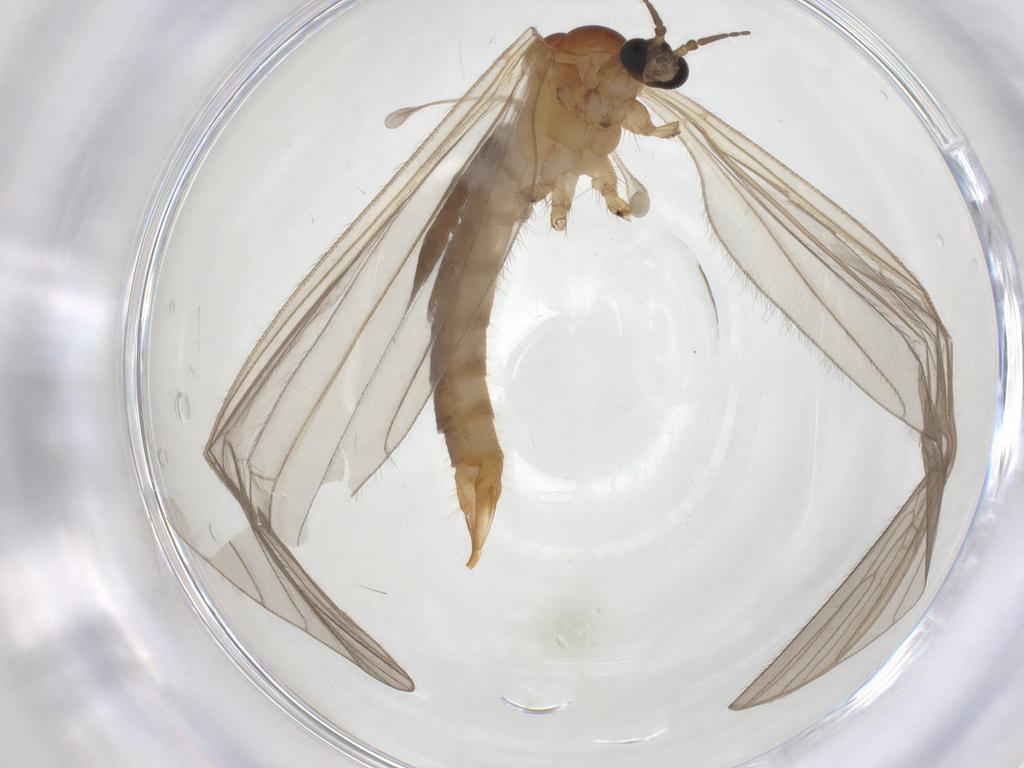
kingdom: Animalia
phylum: Arthropoda
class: Insecta
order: Diptera
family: Limoniidae
